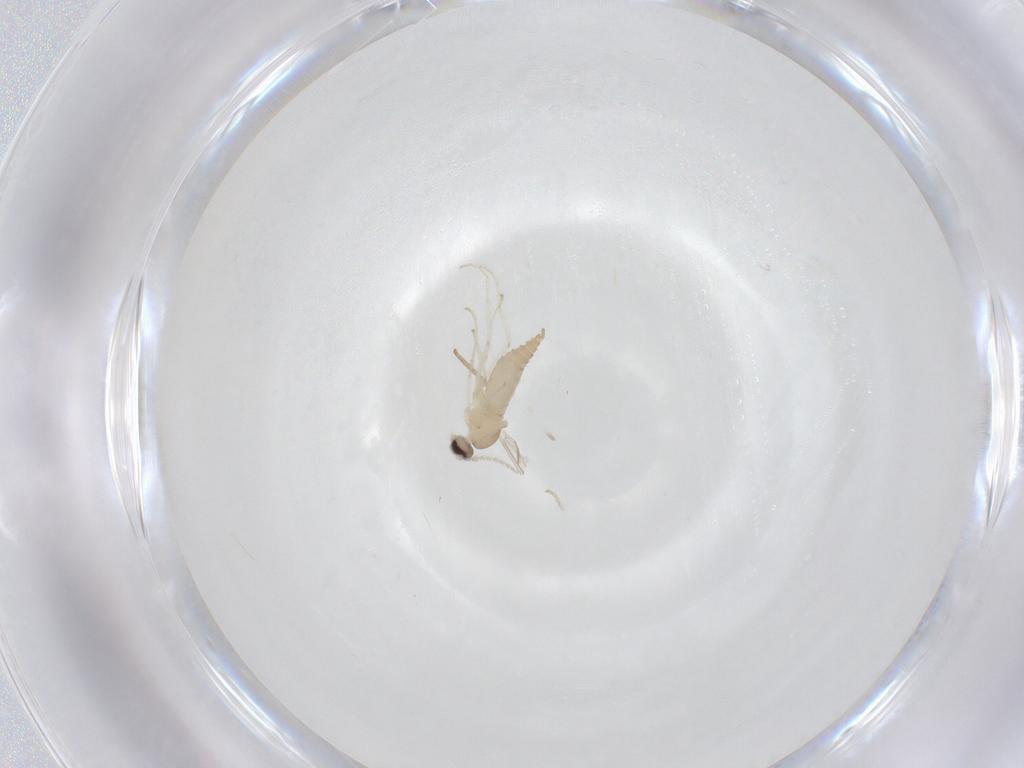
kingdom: Animalia
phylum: Arthropoda
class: Insecta
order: Diptera
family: Cecidomyiidae
